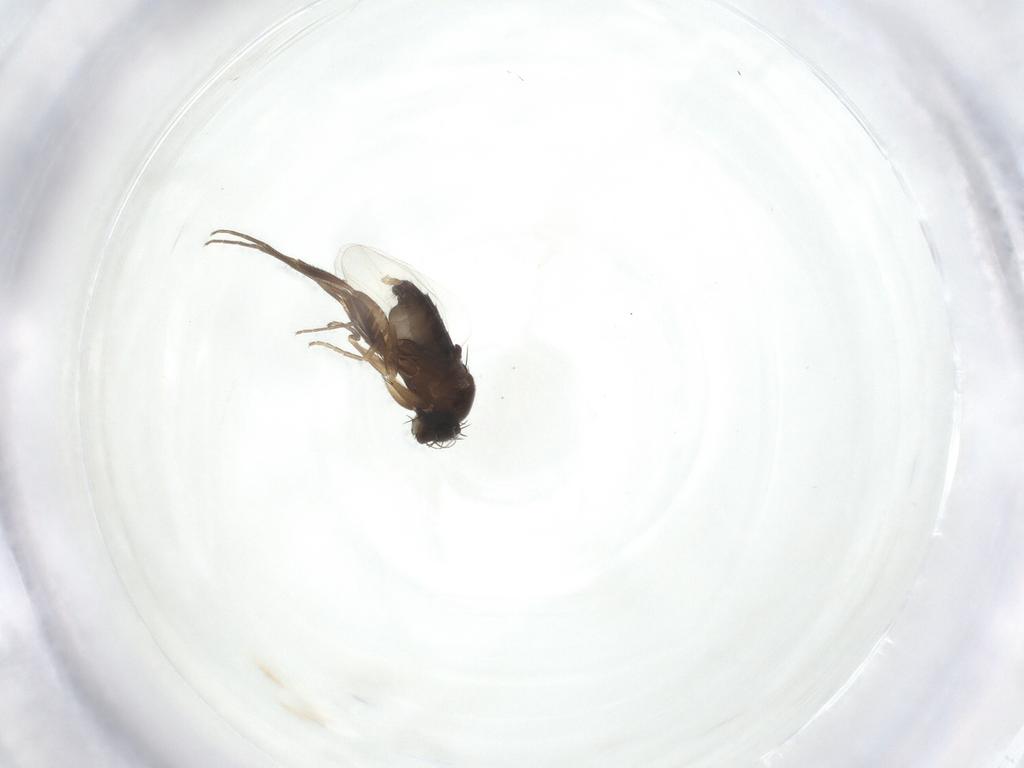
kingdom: Animalia
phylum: Arthropoda
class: Insecta
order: Diptera
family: Phoridae
